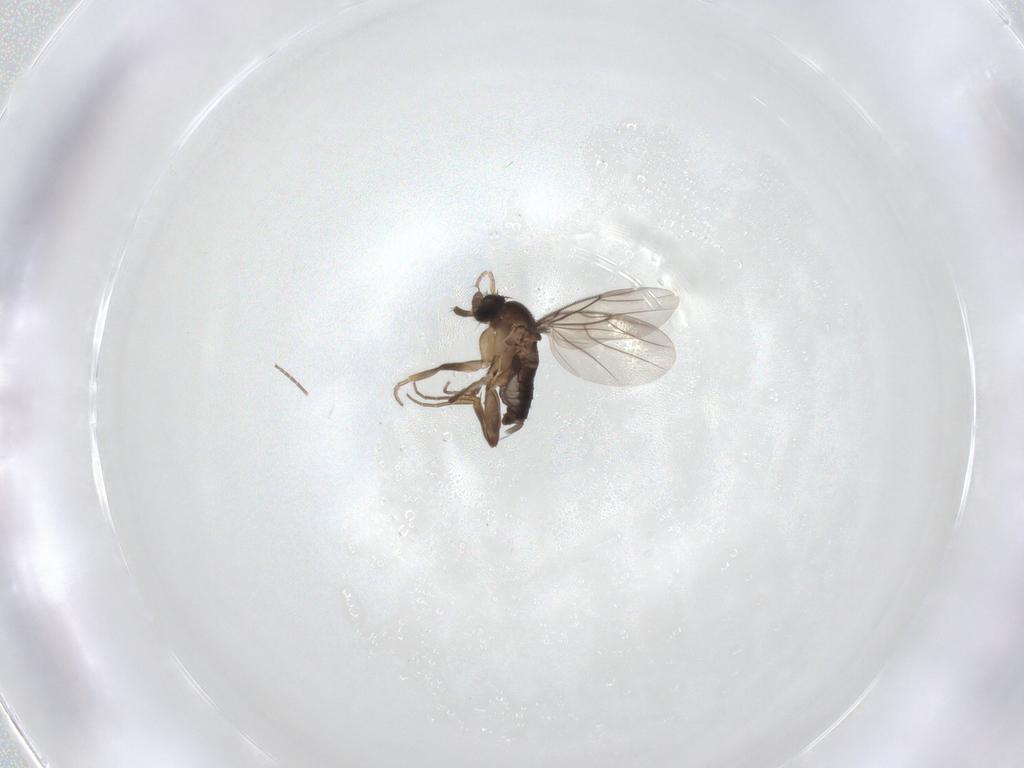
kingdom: Animalia
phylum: Arthropoda
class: Insecta
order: Diptera
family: Phoridae
